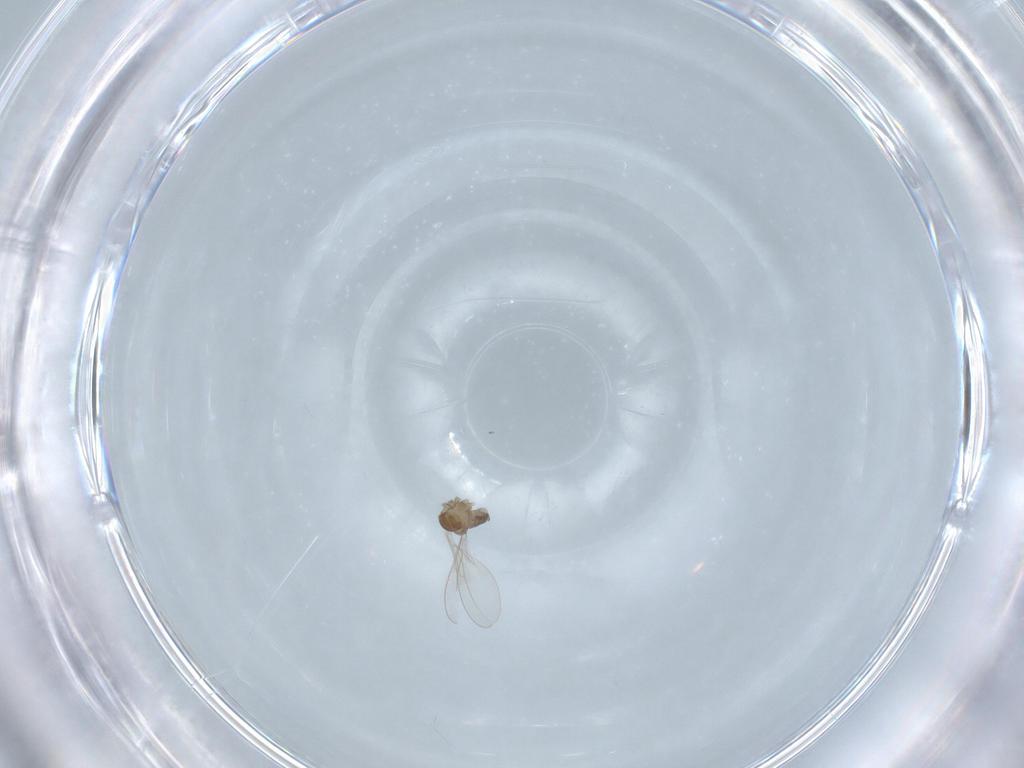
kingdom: Animalia
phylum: Arthropoda
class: Insecta
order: Diptera
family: Cecidomyiidae
